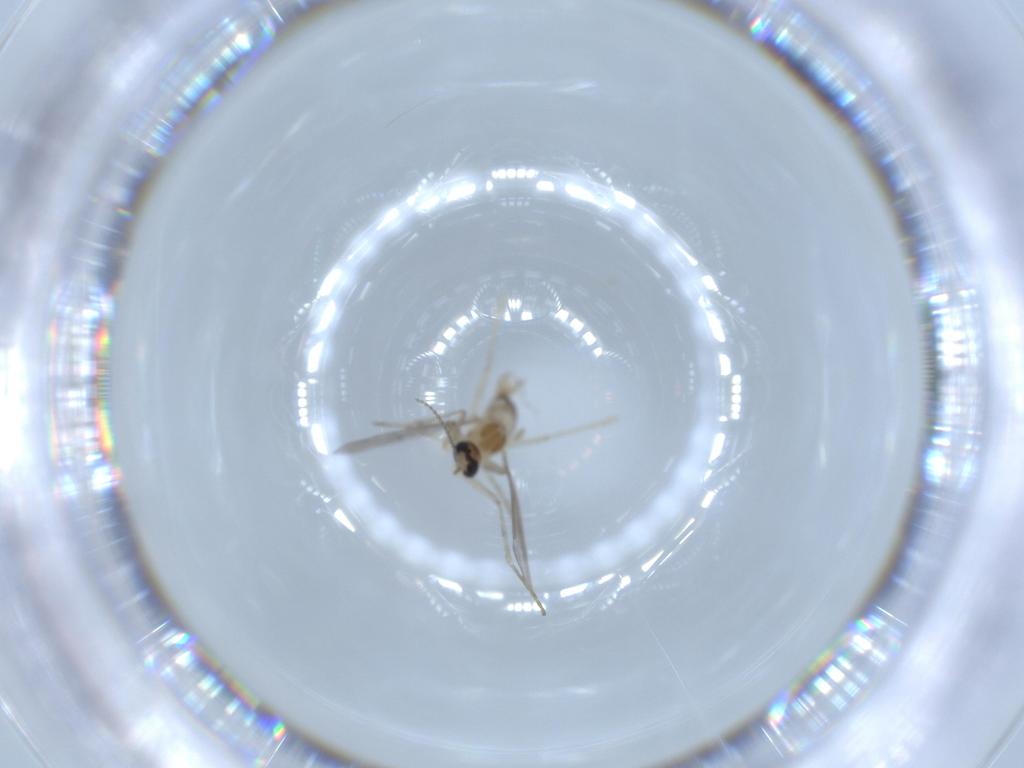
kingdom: Animalia
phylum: Arthropoda
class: Insecta
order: Diptera
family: Cecidomyiidae
